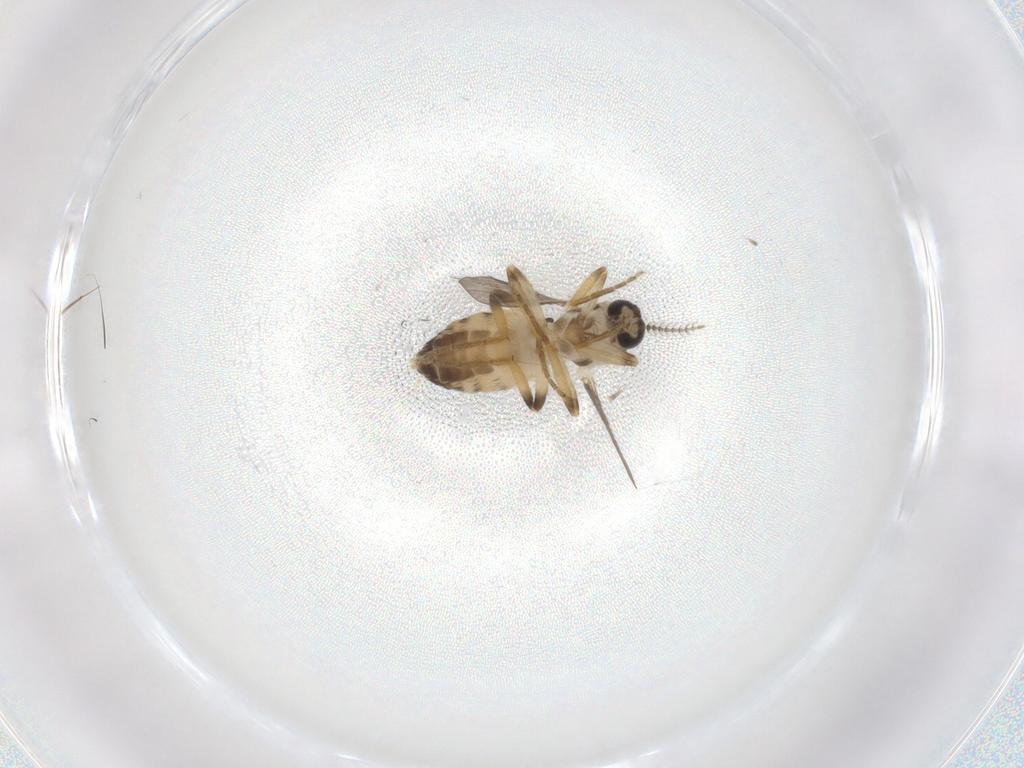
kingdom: Animalia
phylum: Arthropoda
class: Insecta
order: Diptera
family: Ceratopogonidae
